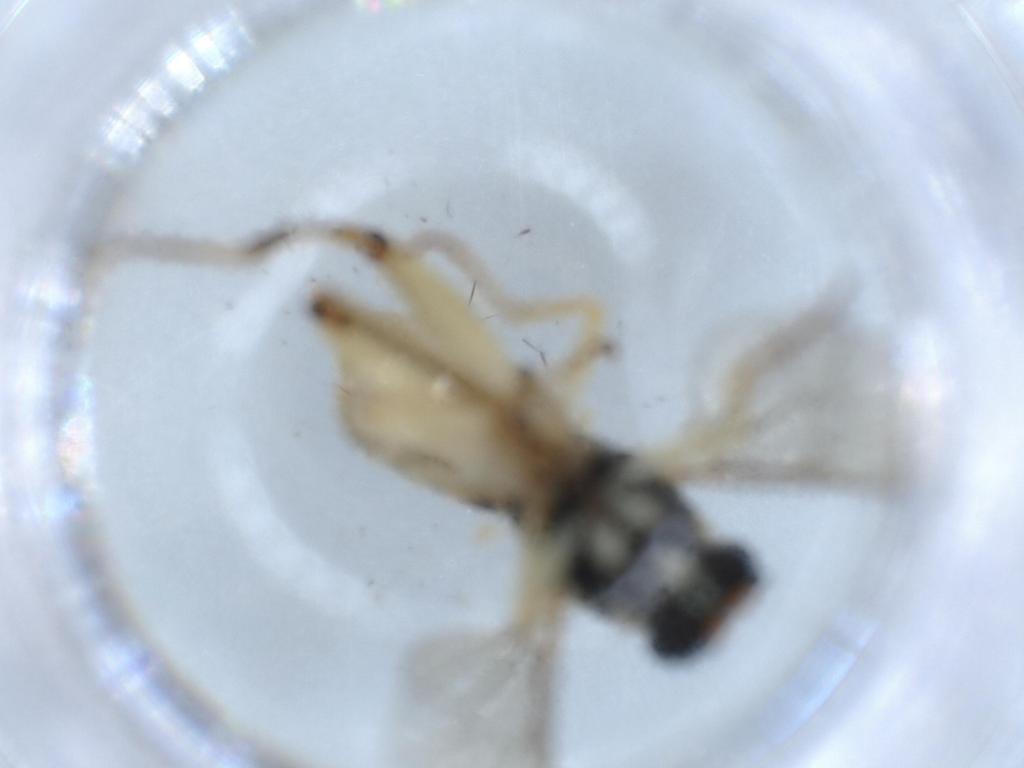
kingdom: Animalia
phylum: Arthropoda
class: Insecta
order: Diptera
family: Phoridae
